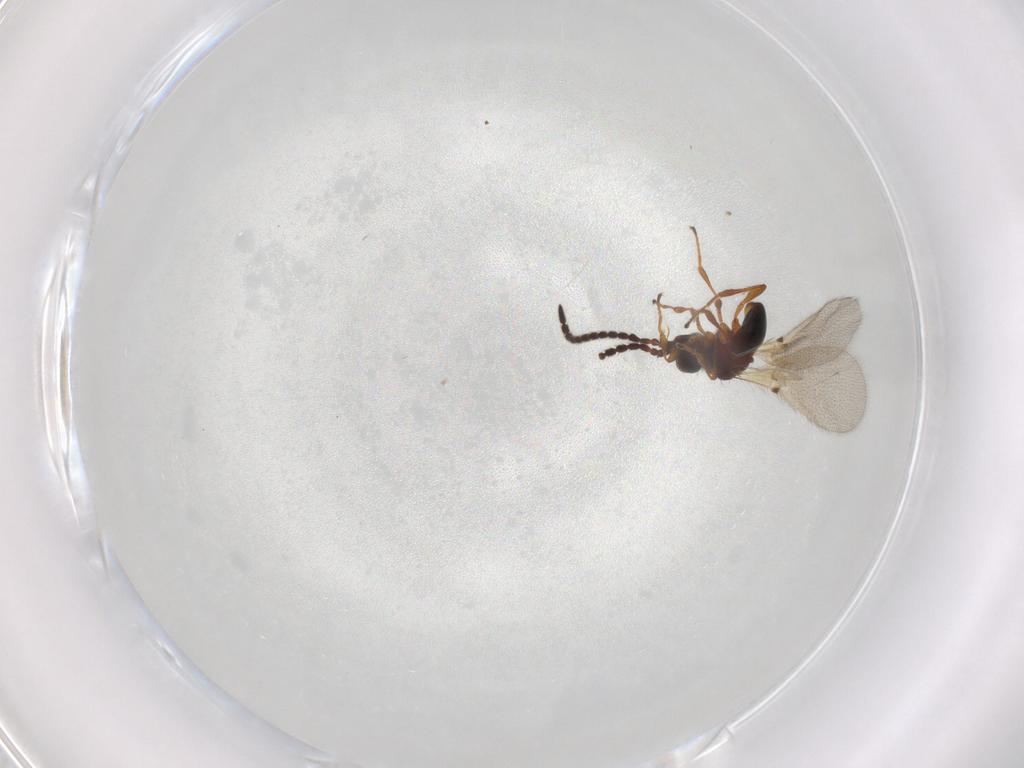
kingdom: Animalia
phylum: Arthropoda
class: Insecta
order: Hymenoptera
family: Diapriidae
